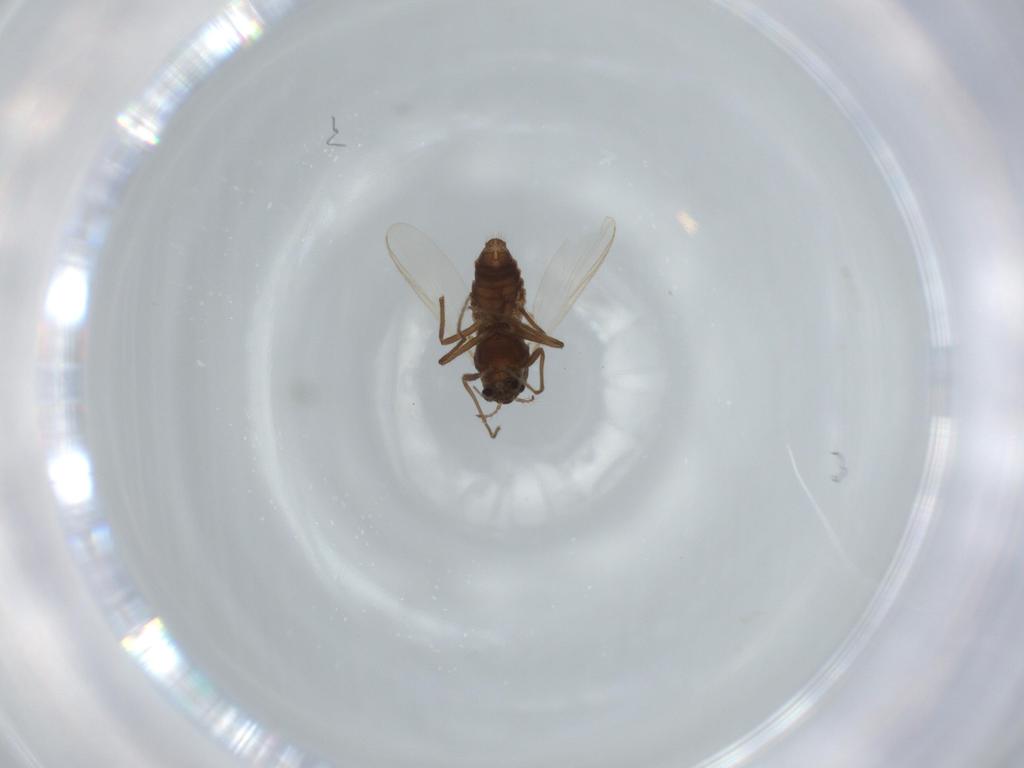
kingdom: Animalia
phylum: Arthropoda
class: Insecta
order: Diptera
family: Chironomidae
